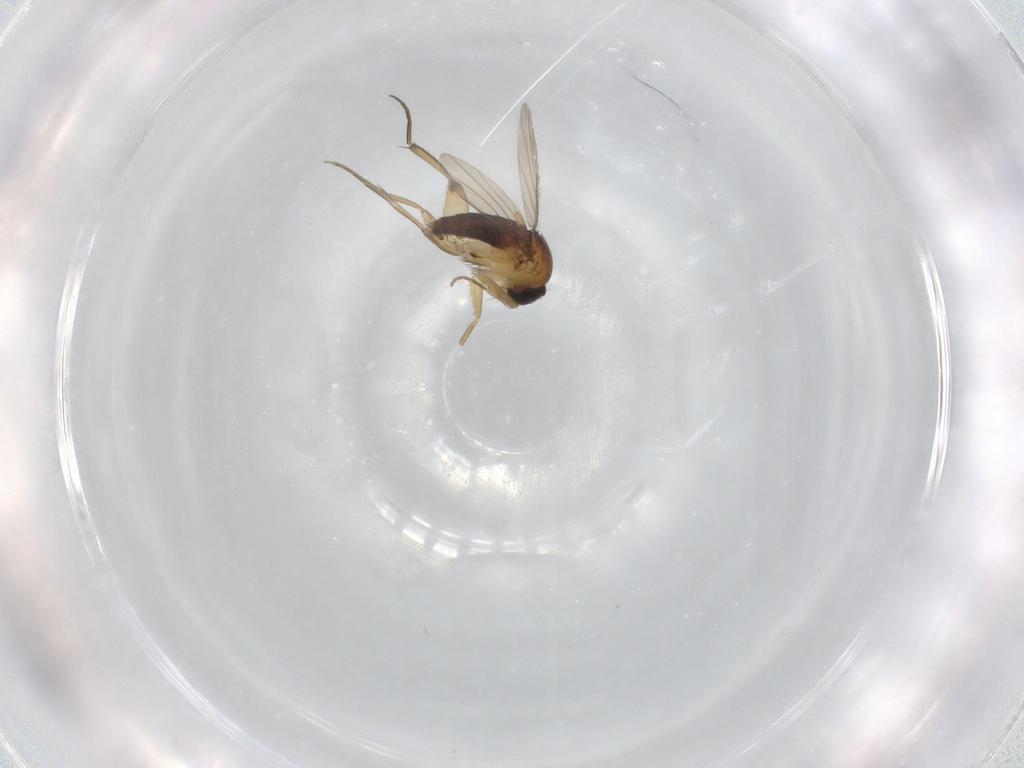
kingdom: Animalia
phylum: Arthropoda
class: Insecta
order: Diptera
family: Phoridae
